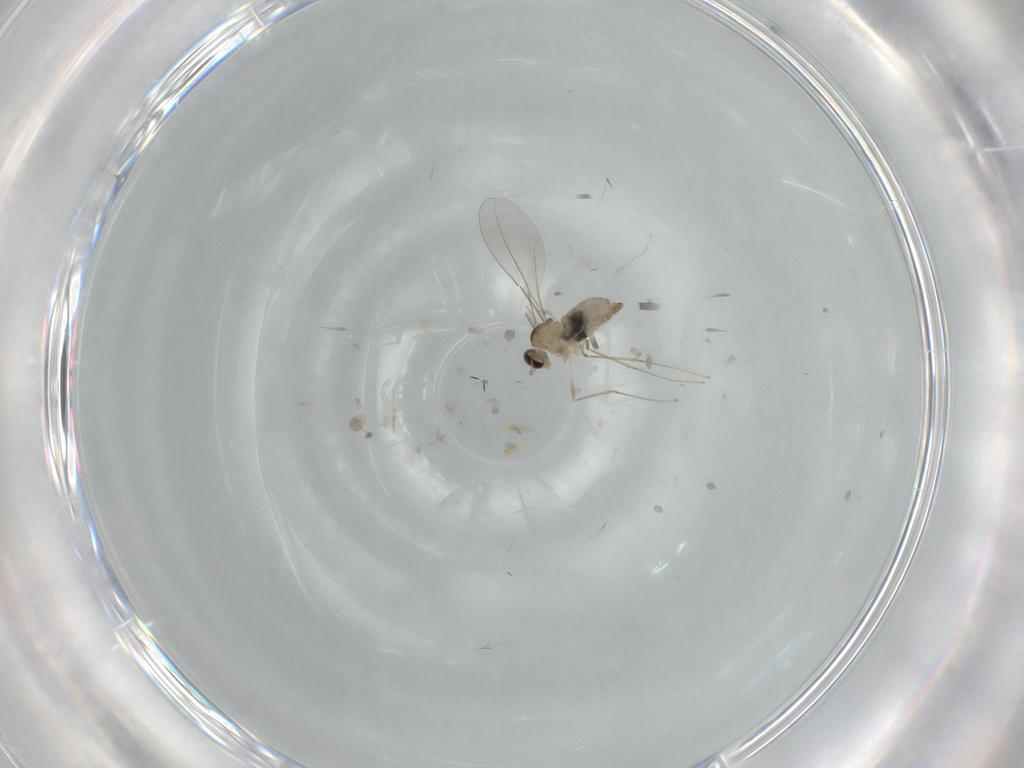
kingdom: Animalia
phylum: Arthropoda
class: Insecta
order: Diptera
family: Cecidomyiidae
